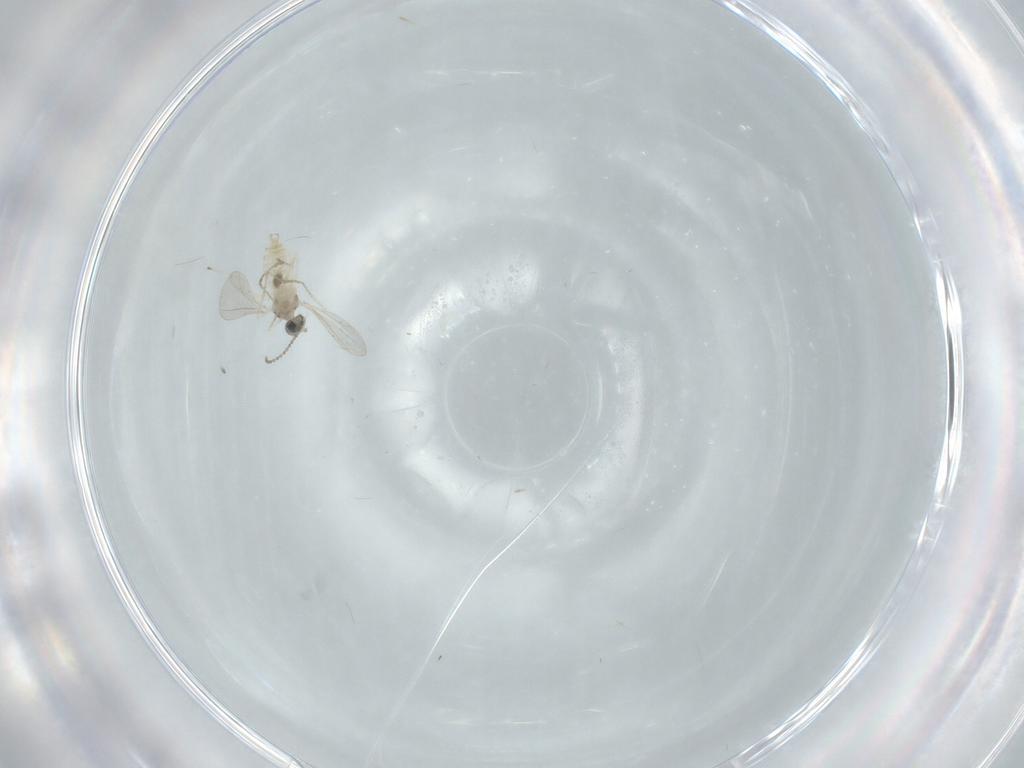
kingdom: Animalia
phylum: Arthropoda
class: Insecta
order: Diptera
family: Cecidomyiidae
